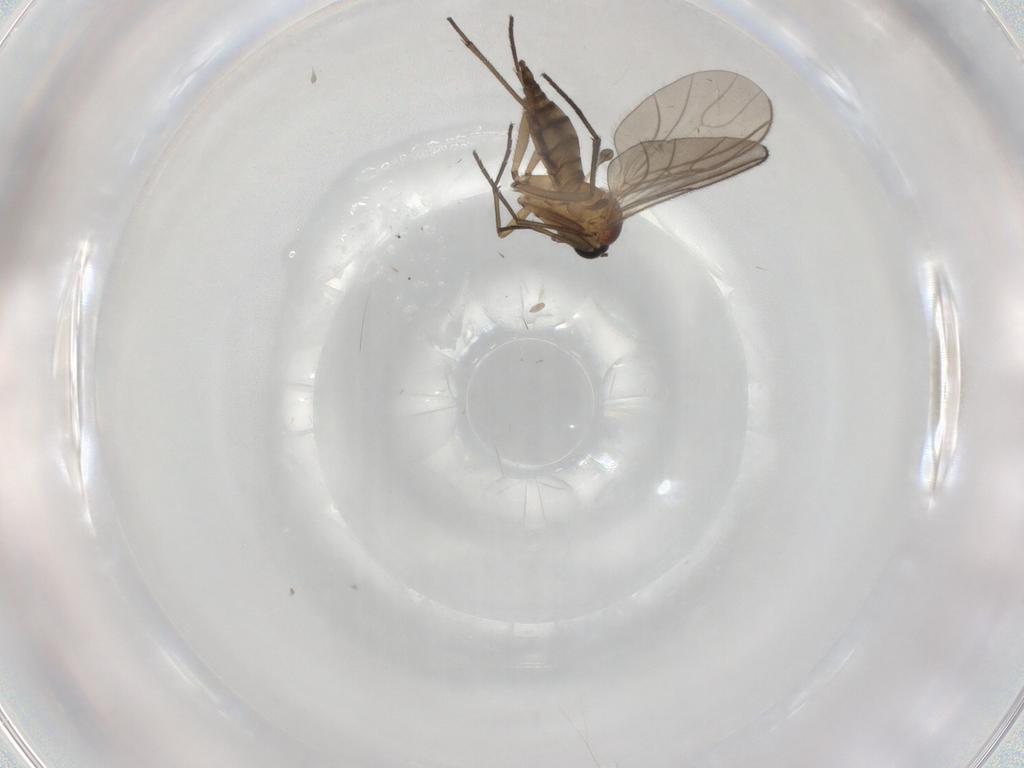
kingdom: Animalia
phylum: Arthropoda
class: Insecta
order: Diptera
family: Sciaridae
